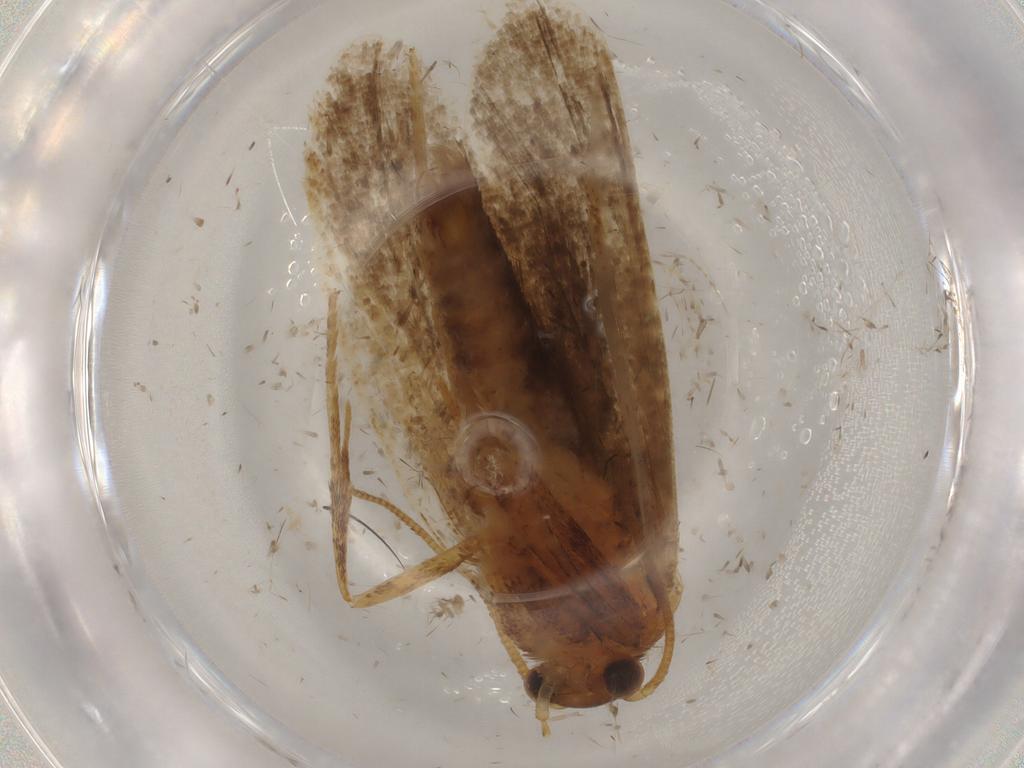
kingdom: Animalia
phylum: Arthropoda
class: Insecta
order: Lepidoptera
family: Nepticulidae
